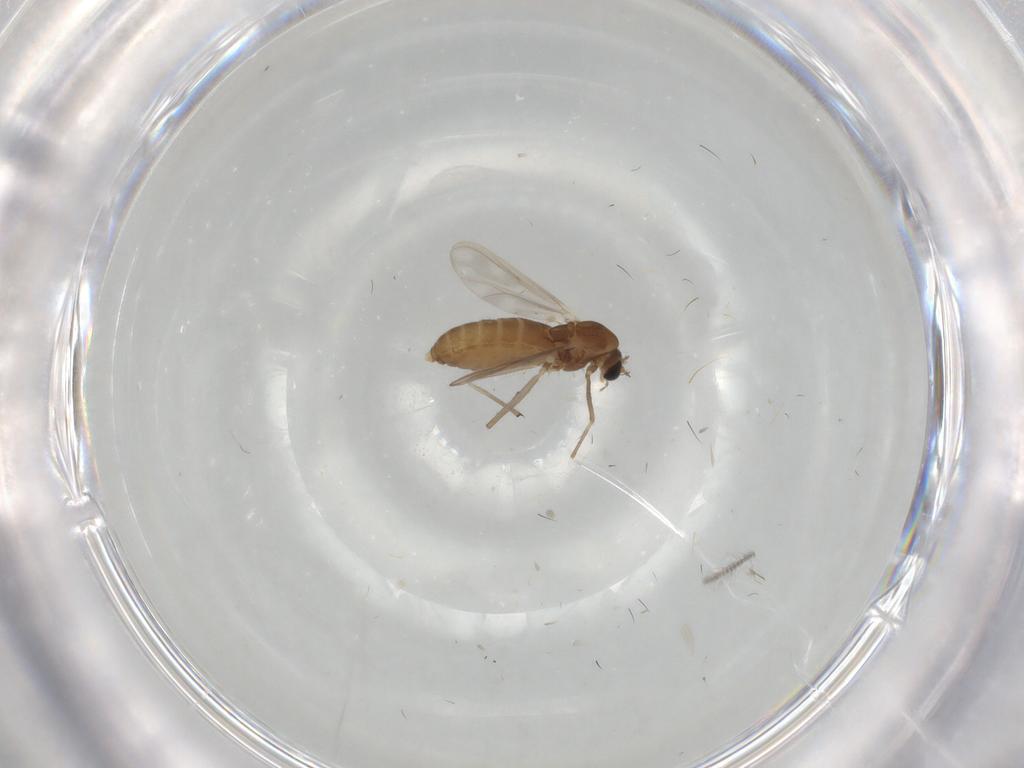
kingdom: Animalia
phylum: Arthropoda
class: Insecta
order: Diptera
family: Chironomidae
